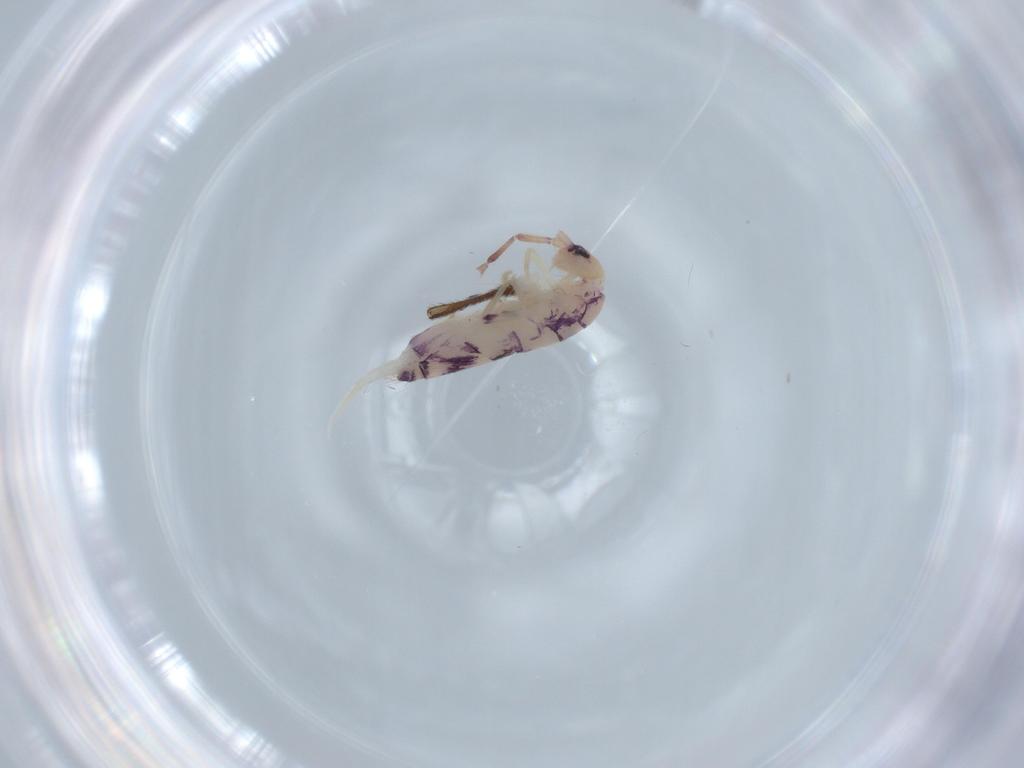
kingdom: Animalia
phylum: Arthropoda
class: Collembola
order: Entomobryomorpha
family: Entomobryidae
